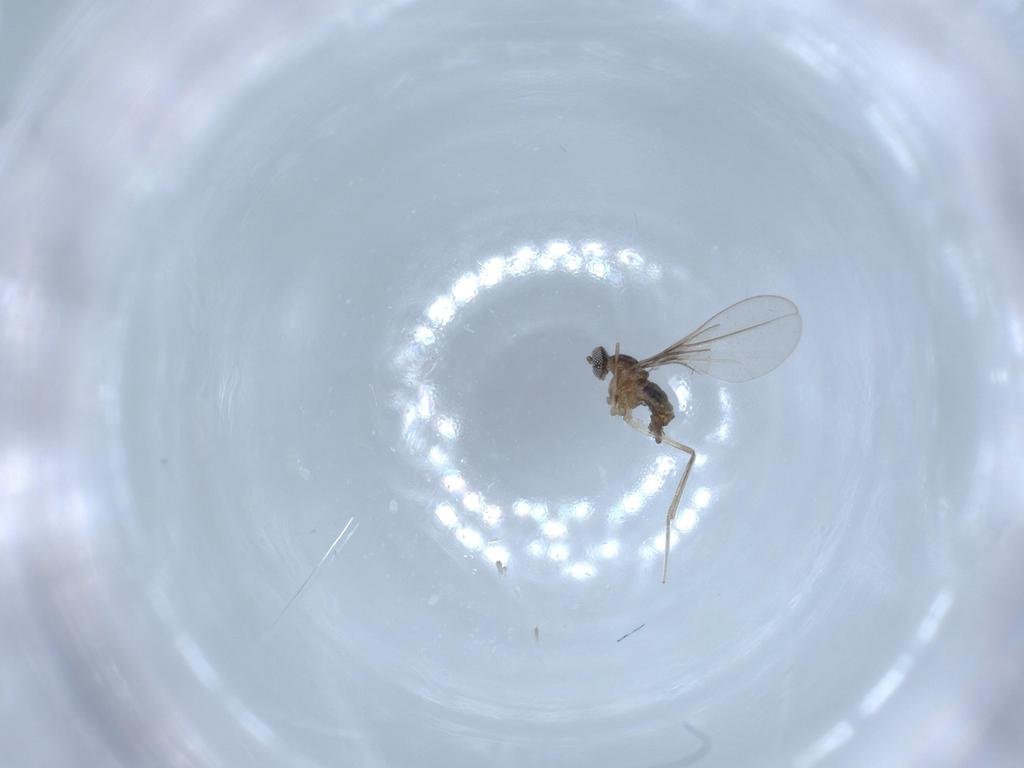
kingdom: Animalia
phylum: Arthropoda
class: Insecta
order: Diptera
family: Cecidomyiidae
